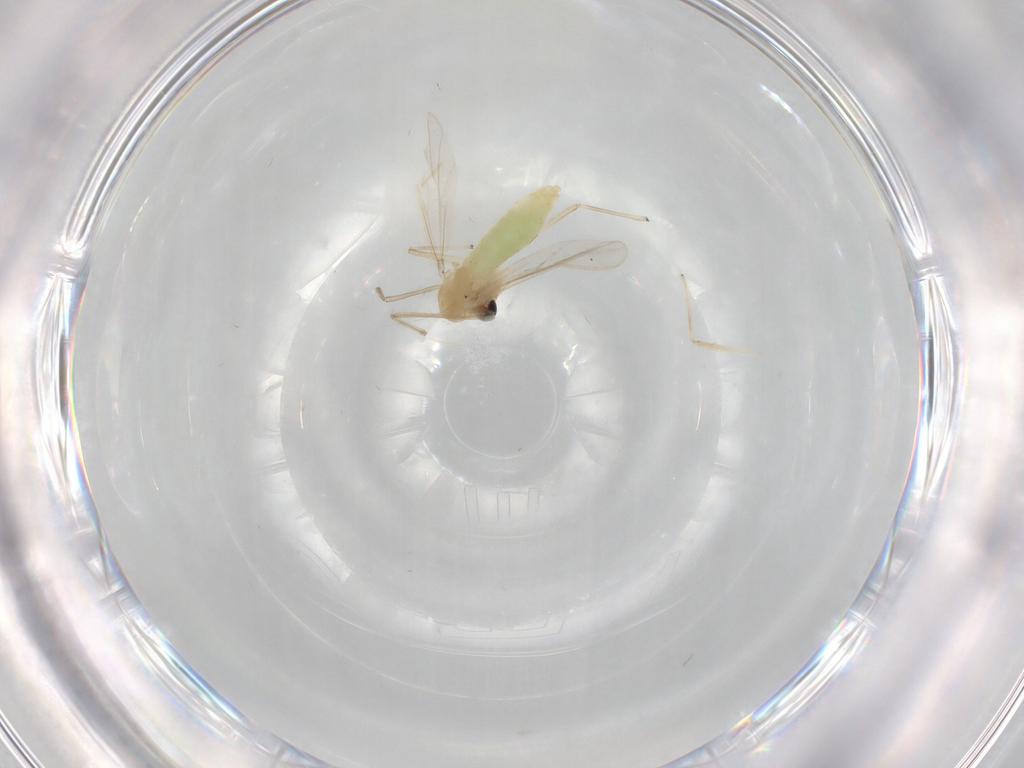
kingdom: Animalia
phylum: Arthropoda
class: Insecta
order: Diptera
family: Chironomidae
